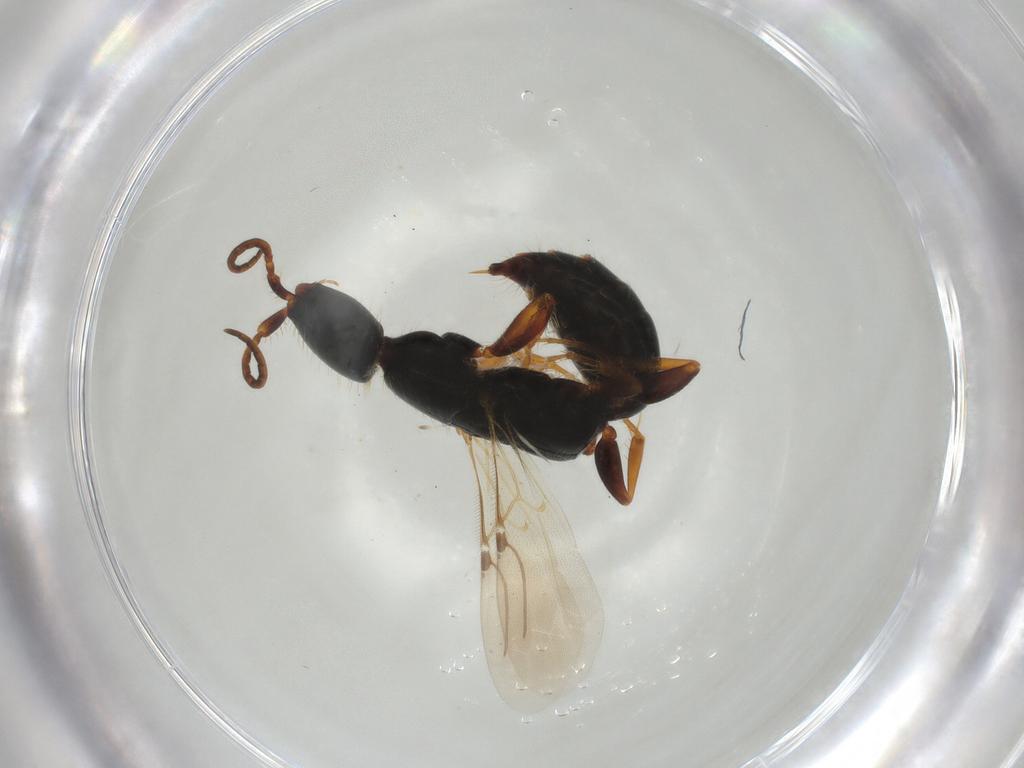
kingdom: Animalia
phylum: Arthropoda
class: Insecta
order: Hymenoptera
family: Bethylidae
